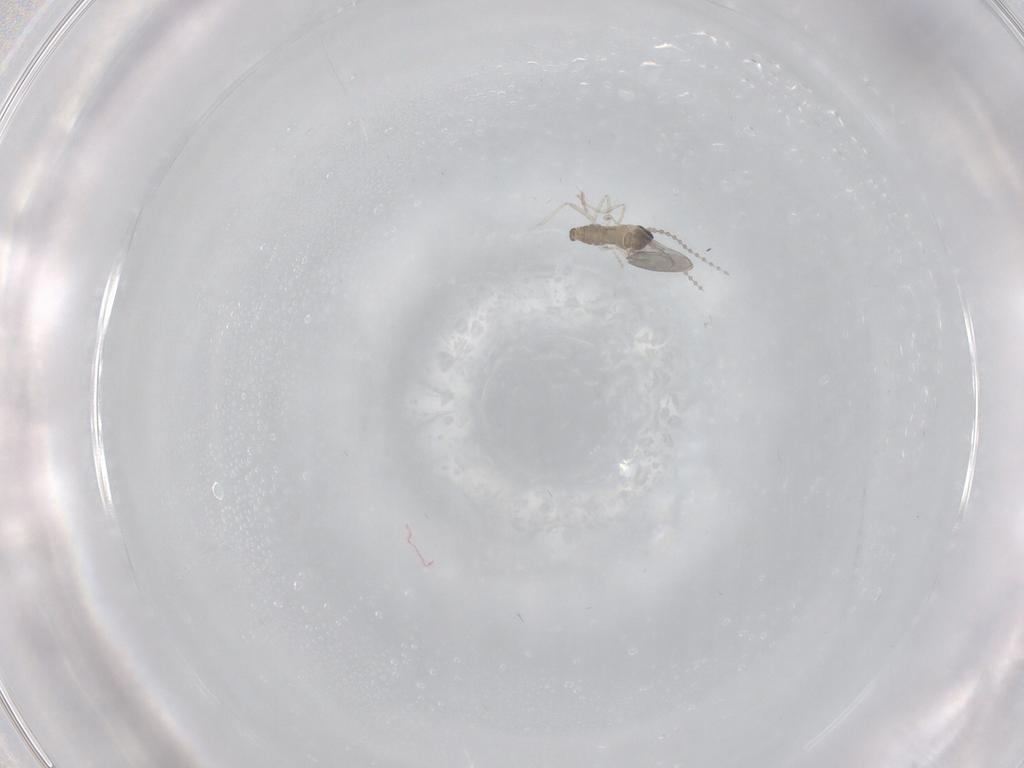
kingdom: Animalia
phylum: Arthropoda
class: Insecta
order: Diptera
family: Cecidomyiidae
